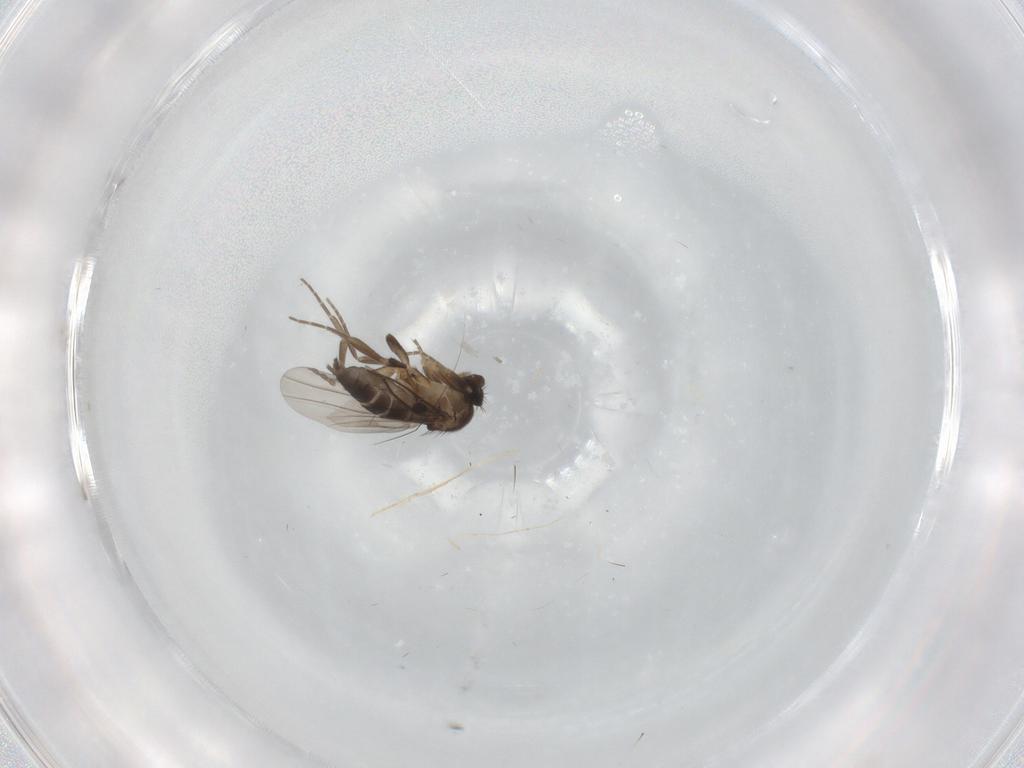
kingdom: Animalia
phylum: Arthropoda
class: Insecta
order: Diptera
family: Phoridae
